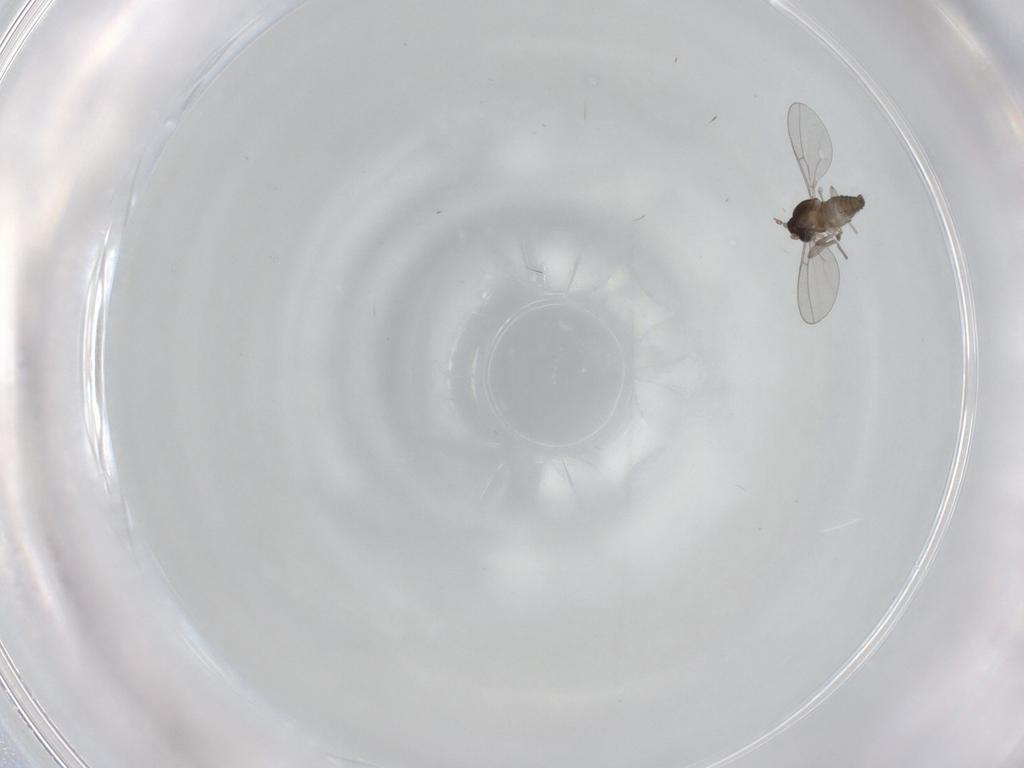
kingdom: Animalia
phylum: Arthropoda
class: Insecta
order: Diptera
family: Cecidomyiidae
